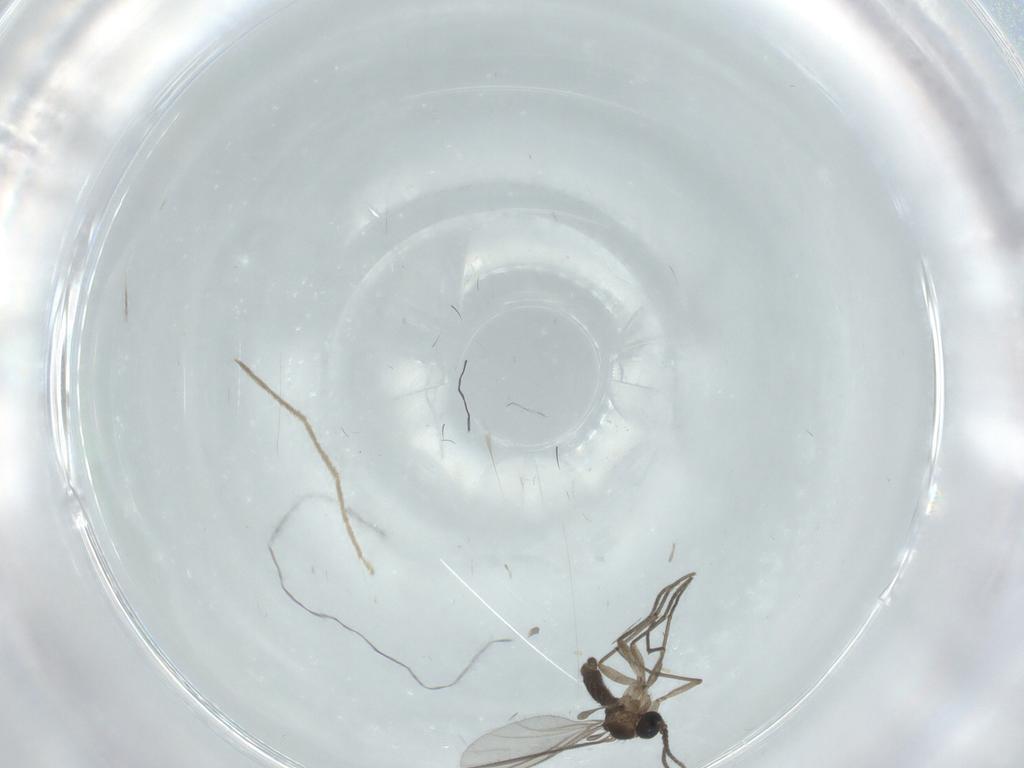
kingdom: Animalia
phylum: Arthropoda
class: Insecta
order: Diptera
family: Sciaridae
